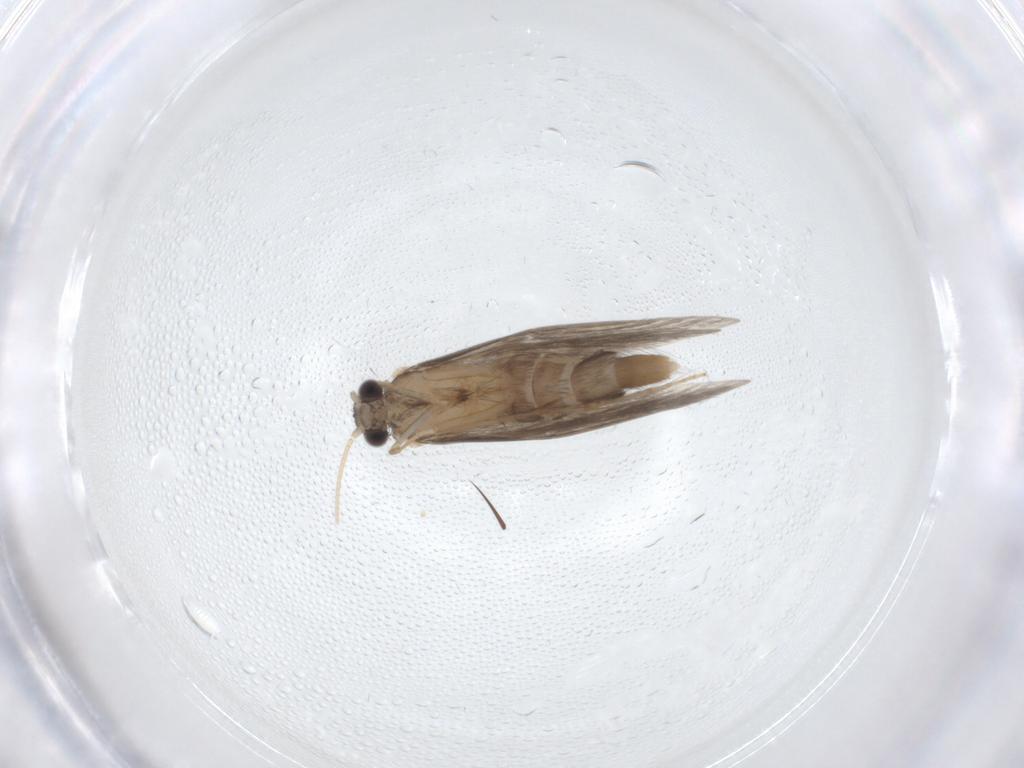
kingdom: Animalia
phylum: Arthropoda
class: Insecta
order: Trichoptera
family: Hydroptilidae
